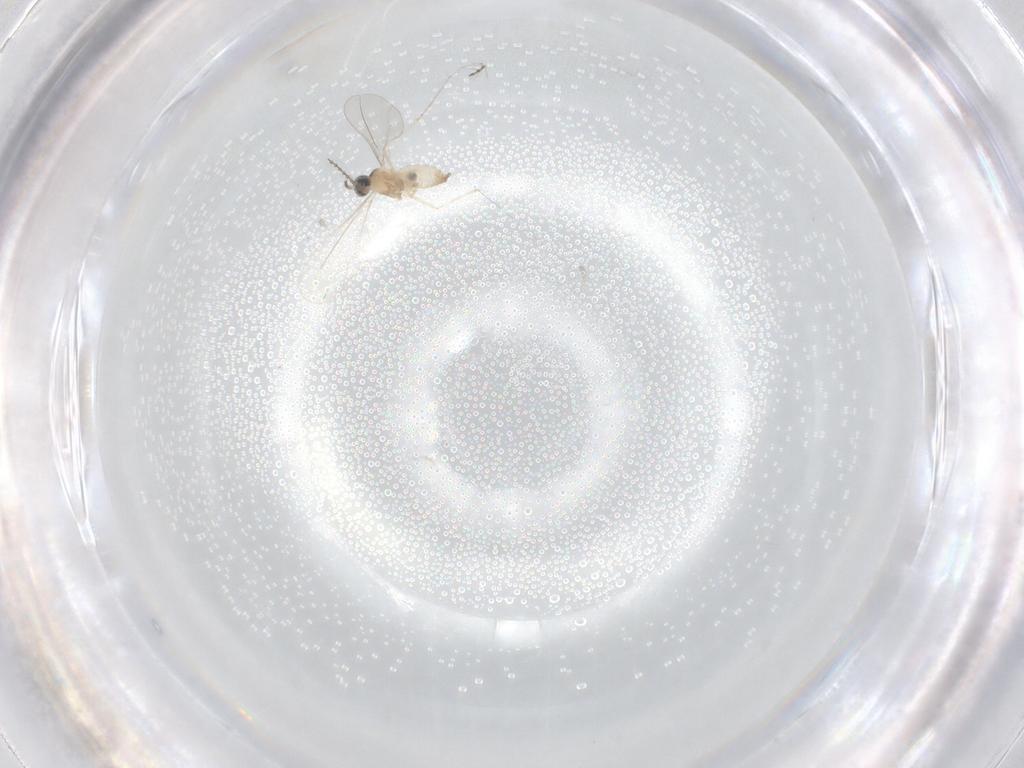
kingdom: Animalia
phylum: Arthropoda
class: Insecta
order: Diptera
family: Cecidomyiidae
